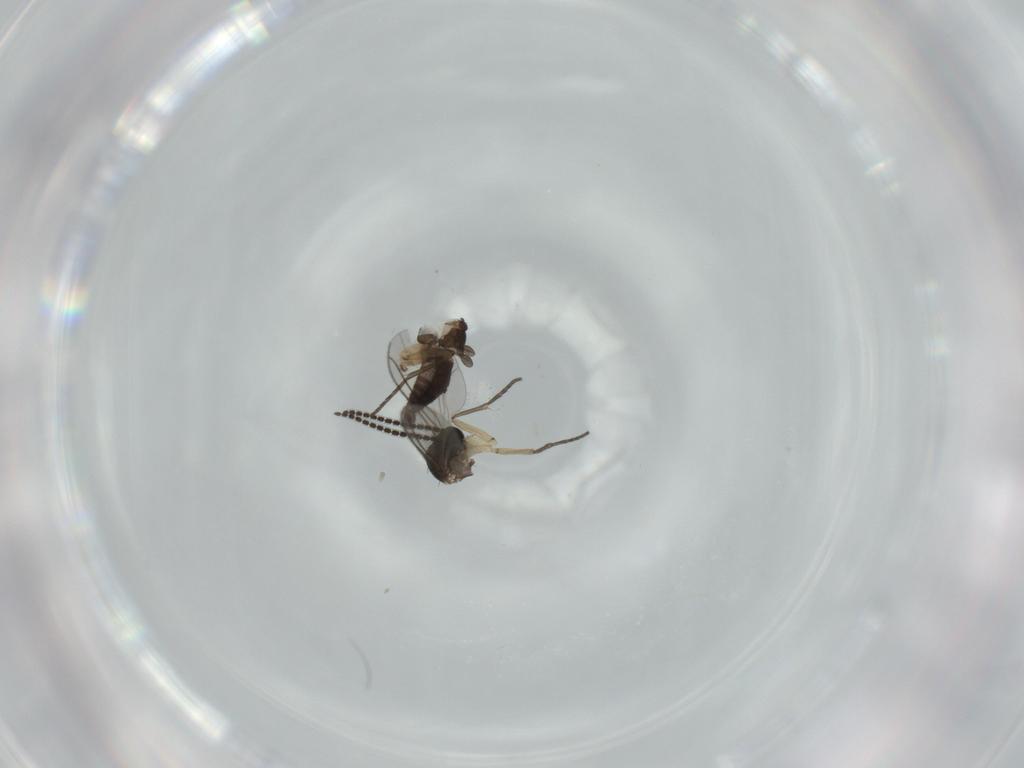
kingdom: Animalia
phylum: Arthropoda
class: Insecta
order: Diptera
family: Sciaridae
